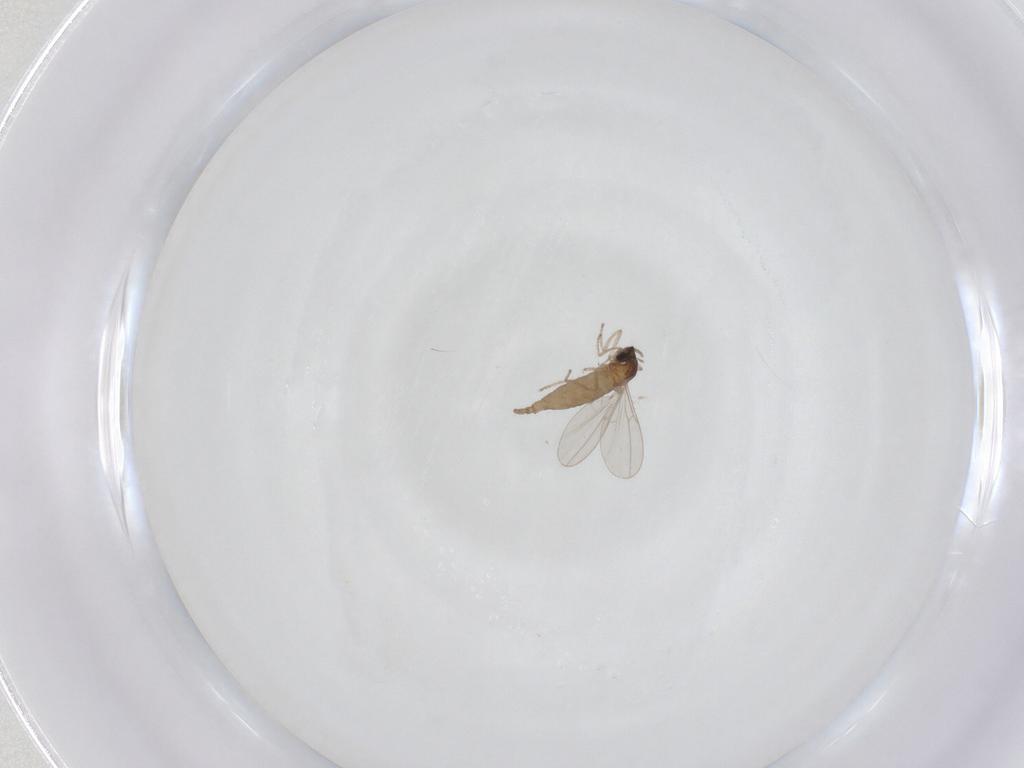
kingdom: Animalia
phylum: Arthropoda
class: Insecta
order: Diptera
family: Cecidomyiidae
